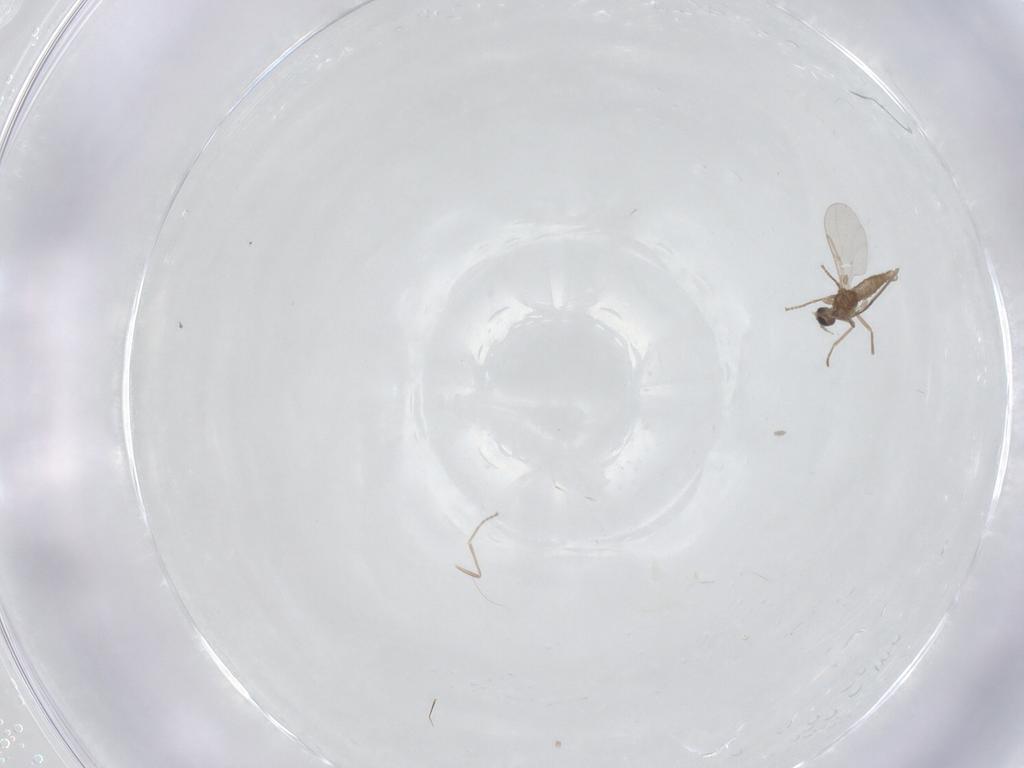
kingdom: Animalia
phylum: Arthropoda
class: Insecta
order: Diptera
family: Cecidomyiidae
